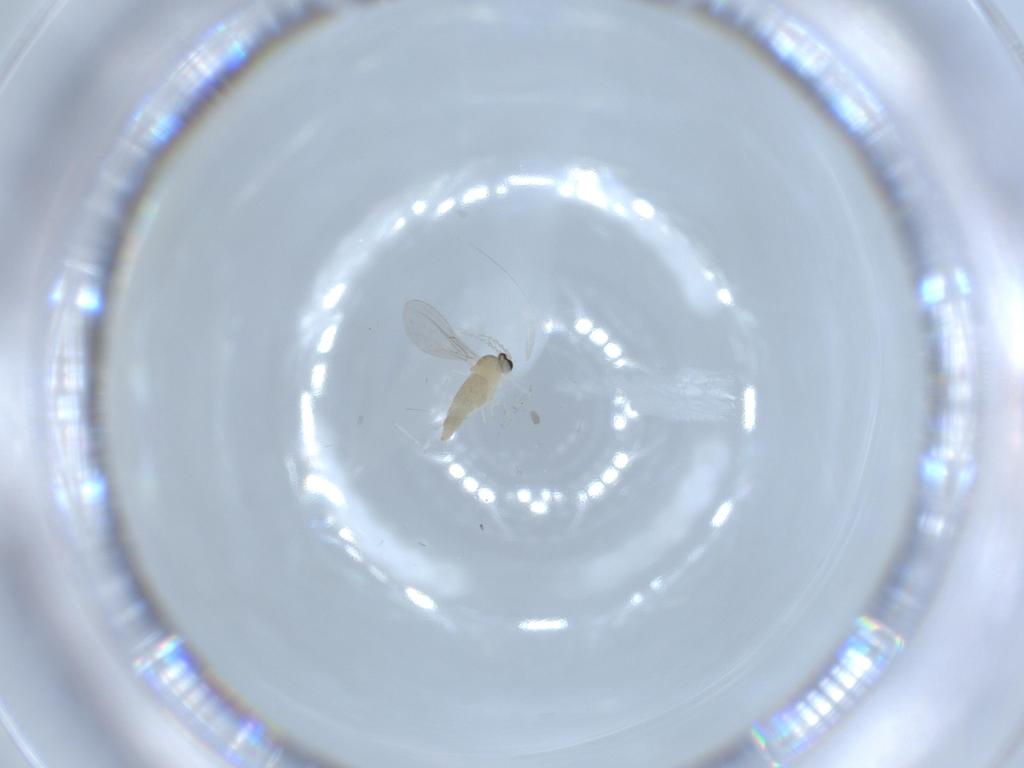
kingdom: Animalia
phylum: Arthropoda
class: Insecta
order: Diptera
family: Cecidomyiidae
